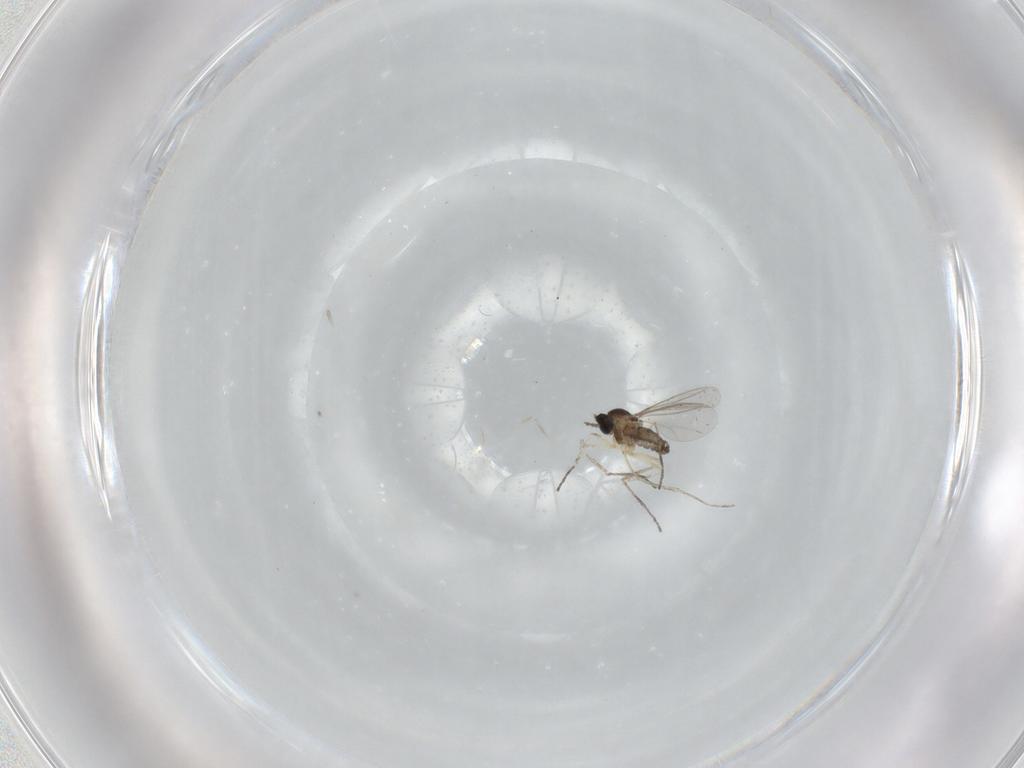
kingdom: Animalia
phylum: Arthropoda
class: Insecta
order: Diptera
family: Cecidomyiidae
